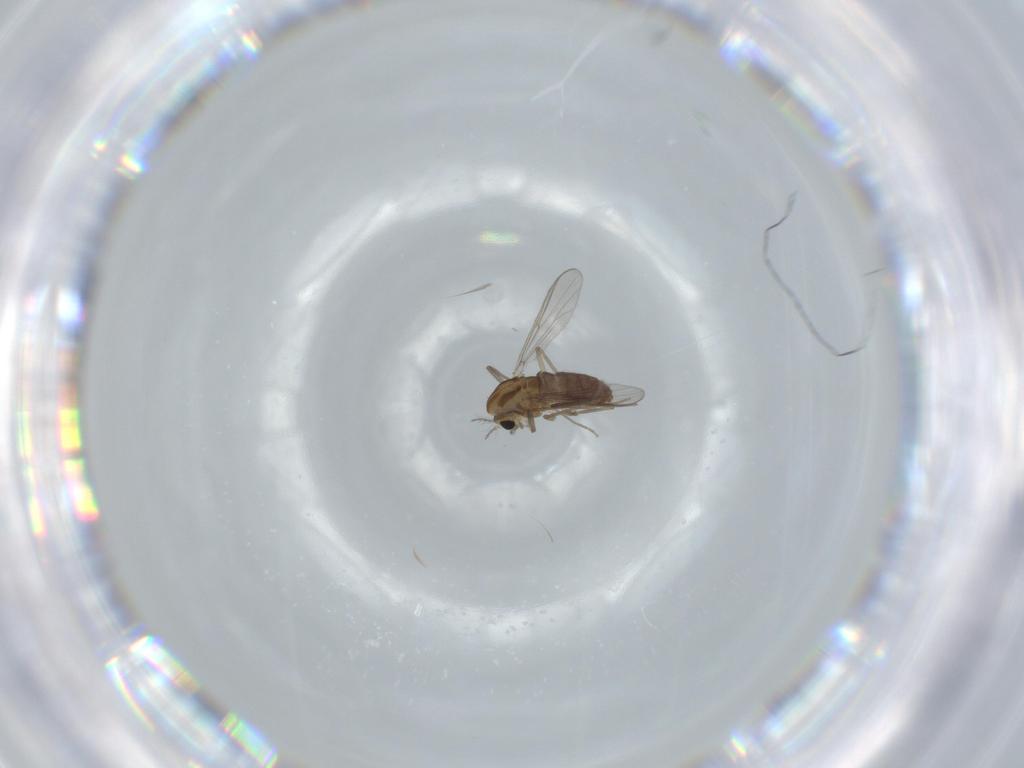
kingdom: Animalia
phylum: Arthropoda
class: Insecta
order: Diptera
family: Chironomidae
